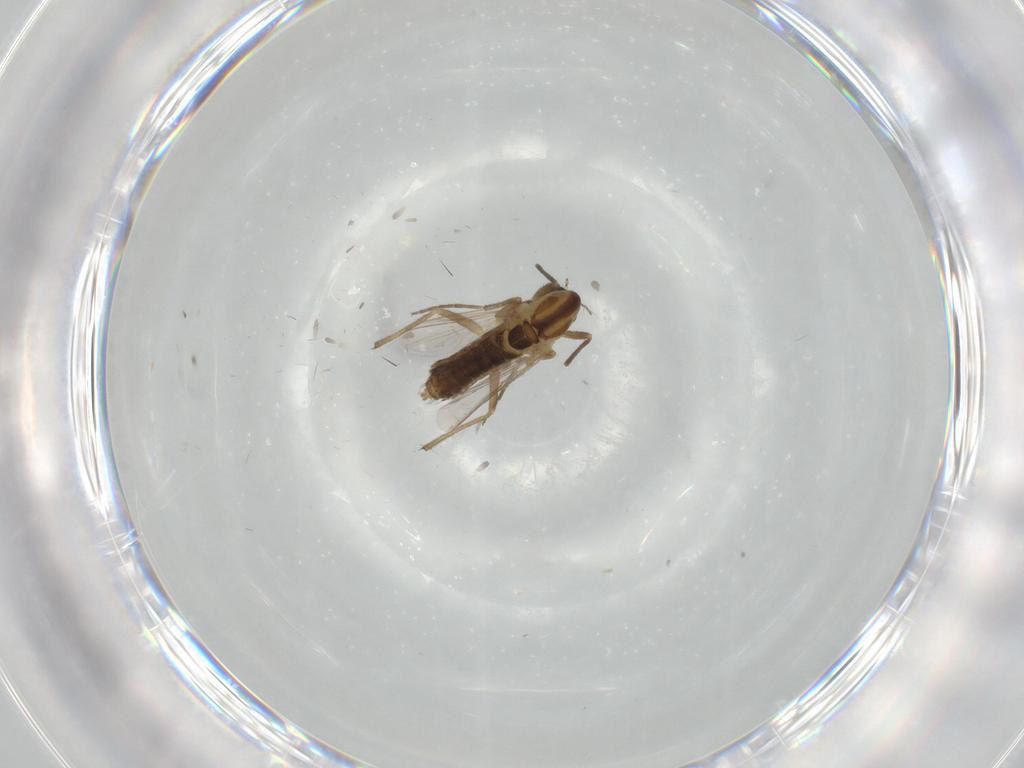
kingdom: Animalia
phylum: Arthropoda
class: Insecta
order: Diptera
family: Chironomidae
